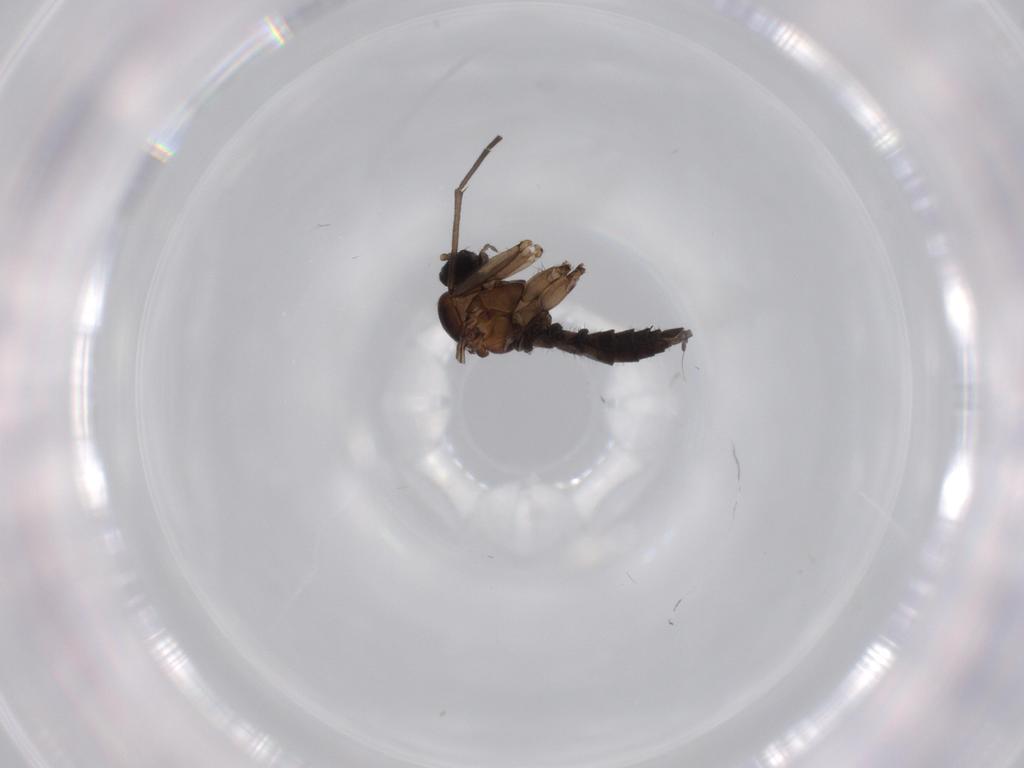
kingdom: Animalia
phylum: Arthropoda
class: Insecta
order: Diptera
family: Sciaridae
